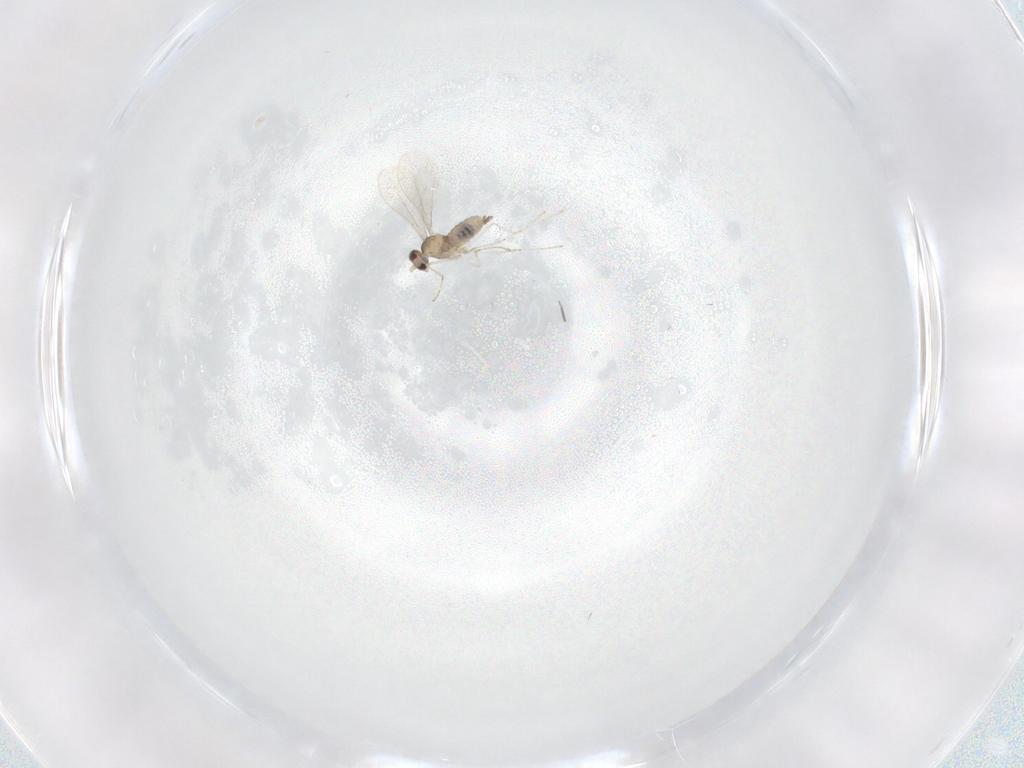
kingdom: Animalia
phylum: Arthropoda
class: Insecta
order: Diptera
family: Cecidomyiidae
